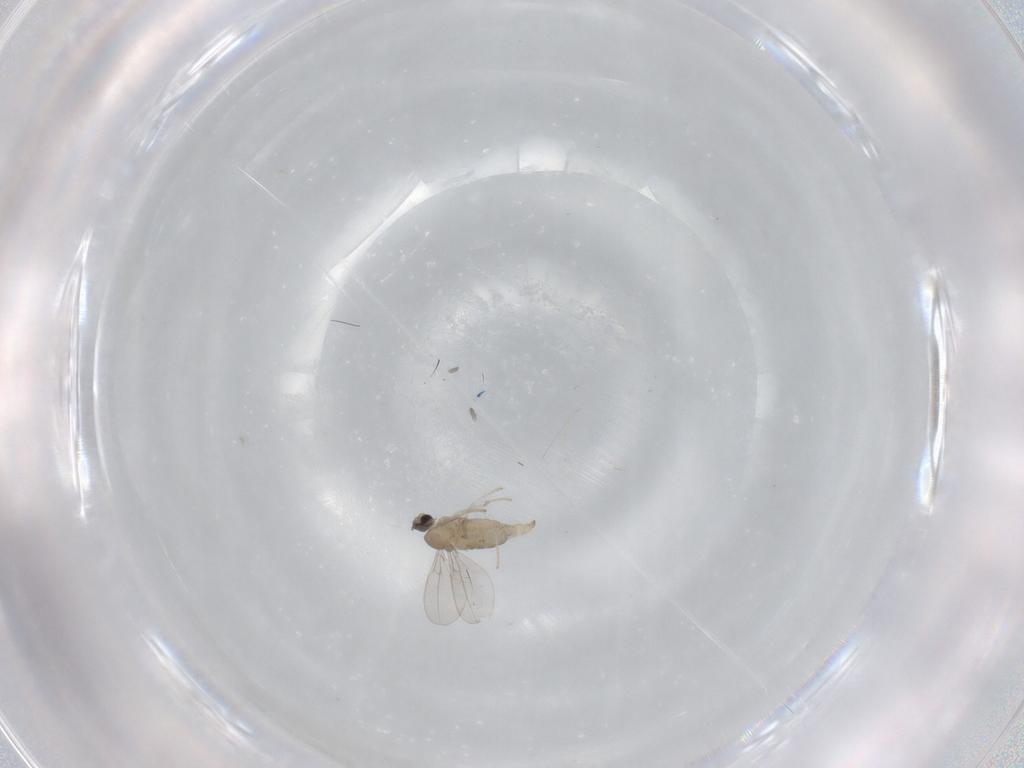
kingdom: Animalia
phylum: Arthropoda
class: Insecta
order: Diptera
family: Cecidomyiidae
